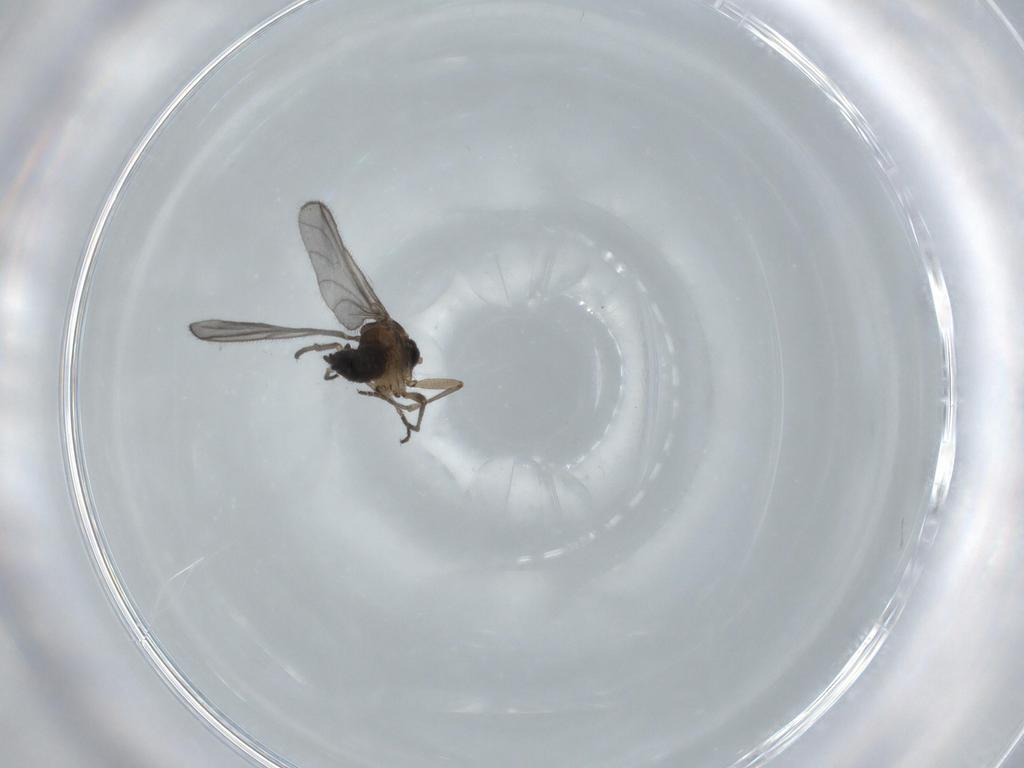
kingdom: Animalia
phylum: Arthropoda
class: Insecta
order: Diptera
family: Sciaridae
